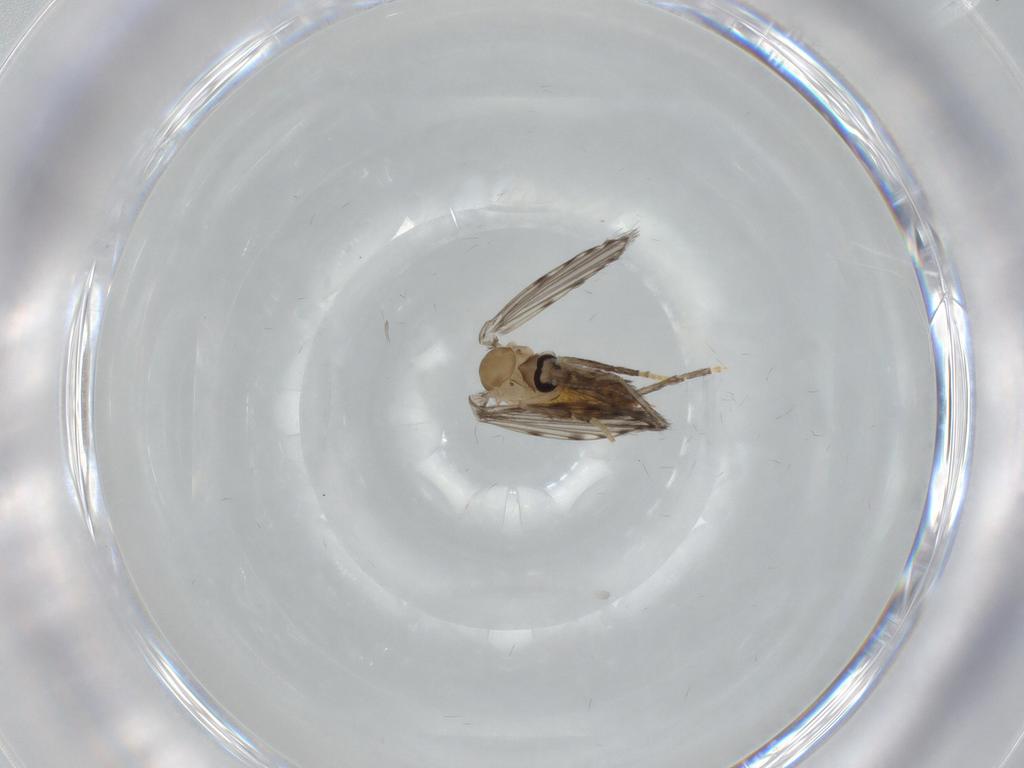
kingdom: Animalia
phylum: Arthropoda
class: Insecta
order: Diptera
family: Psychodidae
